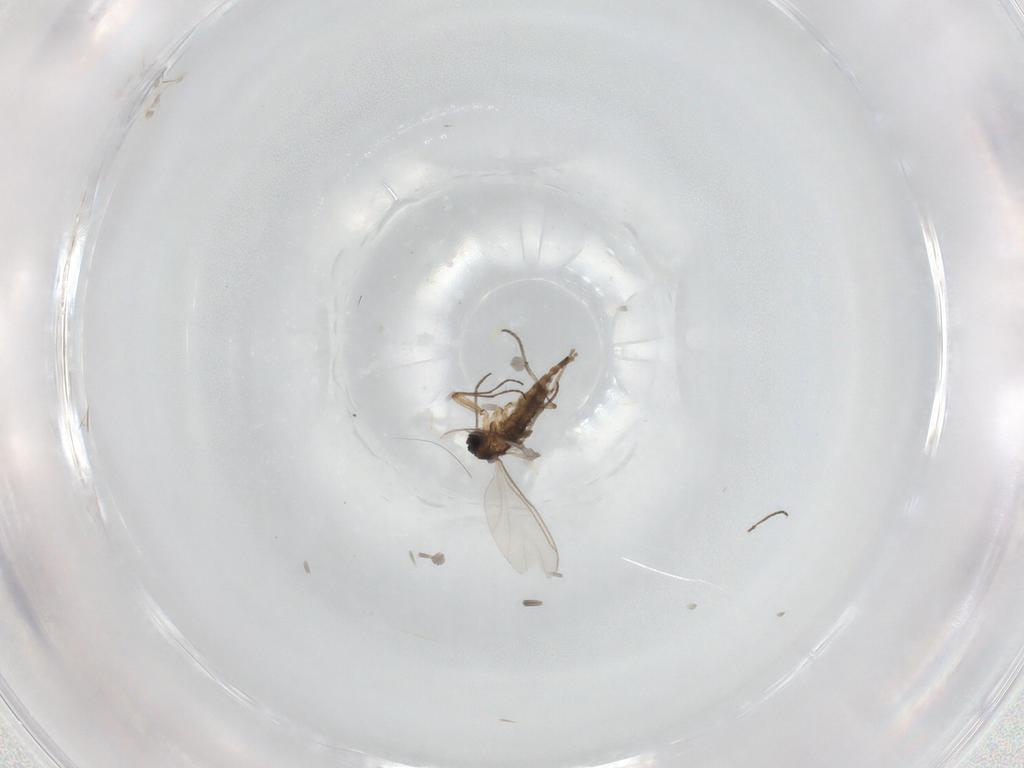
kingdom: Animalia
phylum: Arthropoda
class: Insecta
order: Diptera
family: Sciaridae
